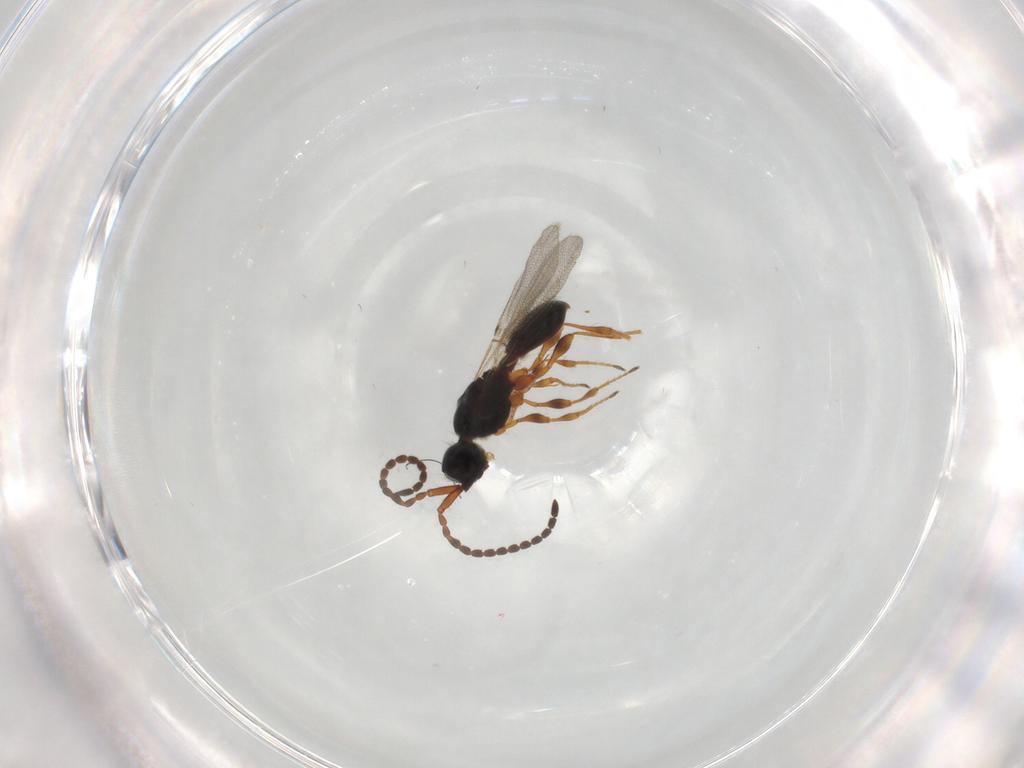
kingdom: Animalia
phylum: Arthropoda
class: Insecta
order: Hymenoptera
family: Diapriidae
